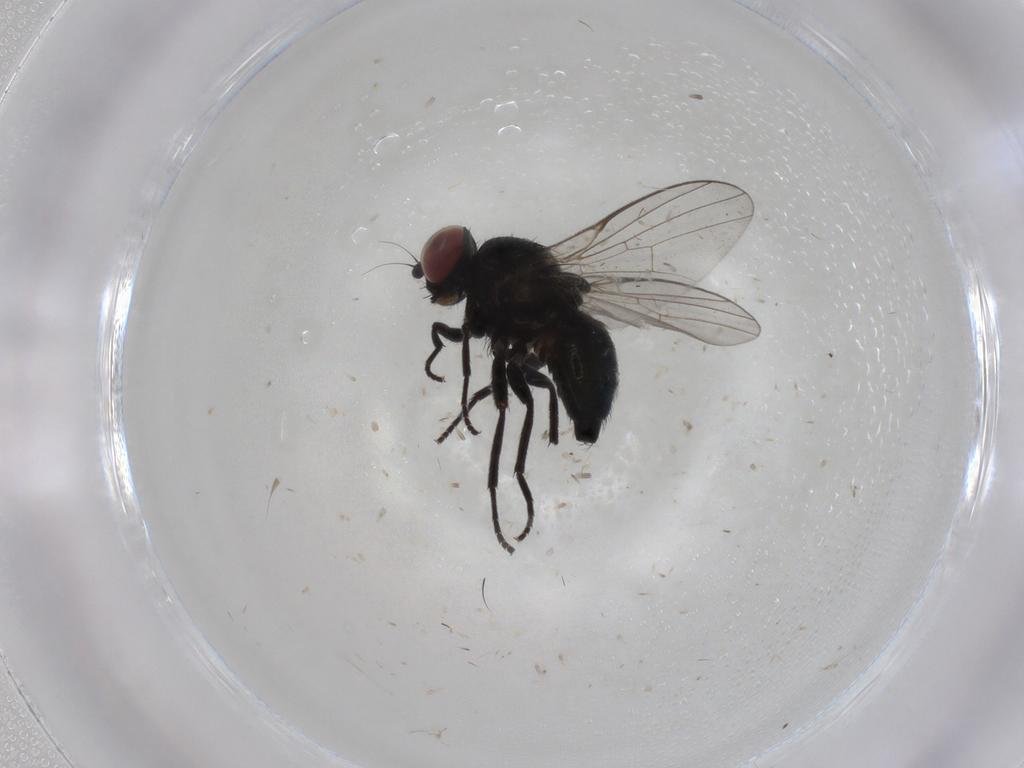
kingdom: Animalia
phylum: Arthropoda
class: Insecta
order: Diptera
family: Agromyzidae
